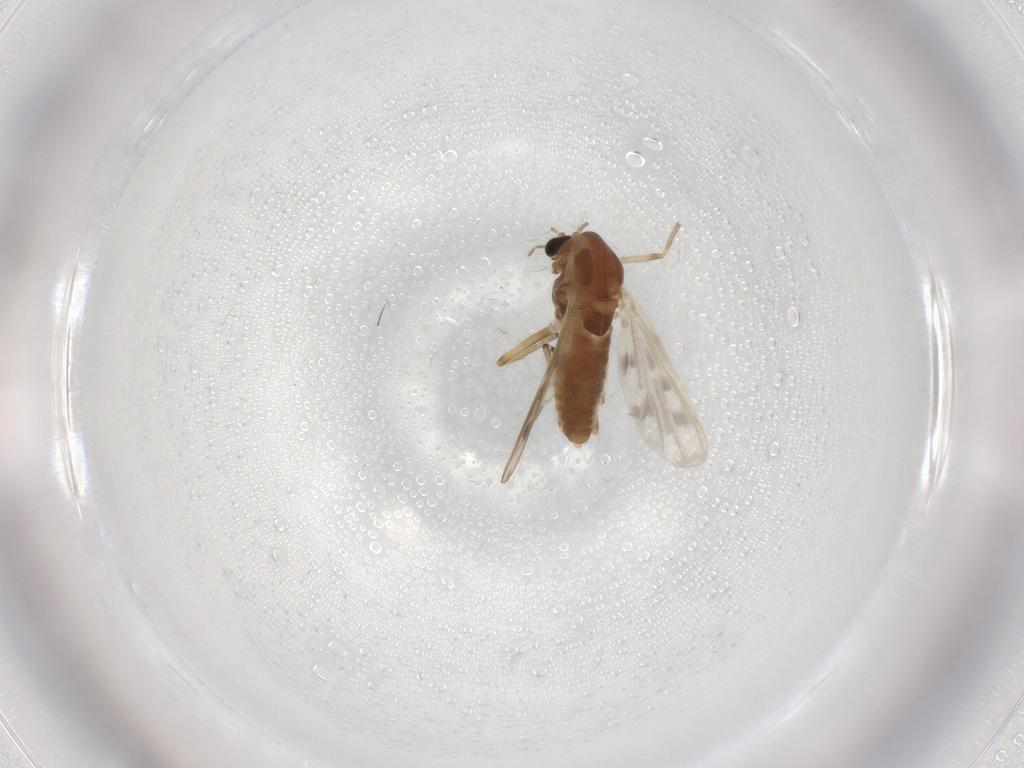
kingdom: Animalia
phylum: Arthropoda
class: Insecta
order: Diptera
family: Chironomidae
